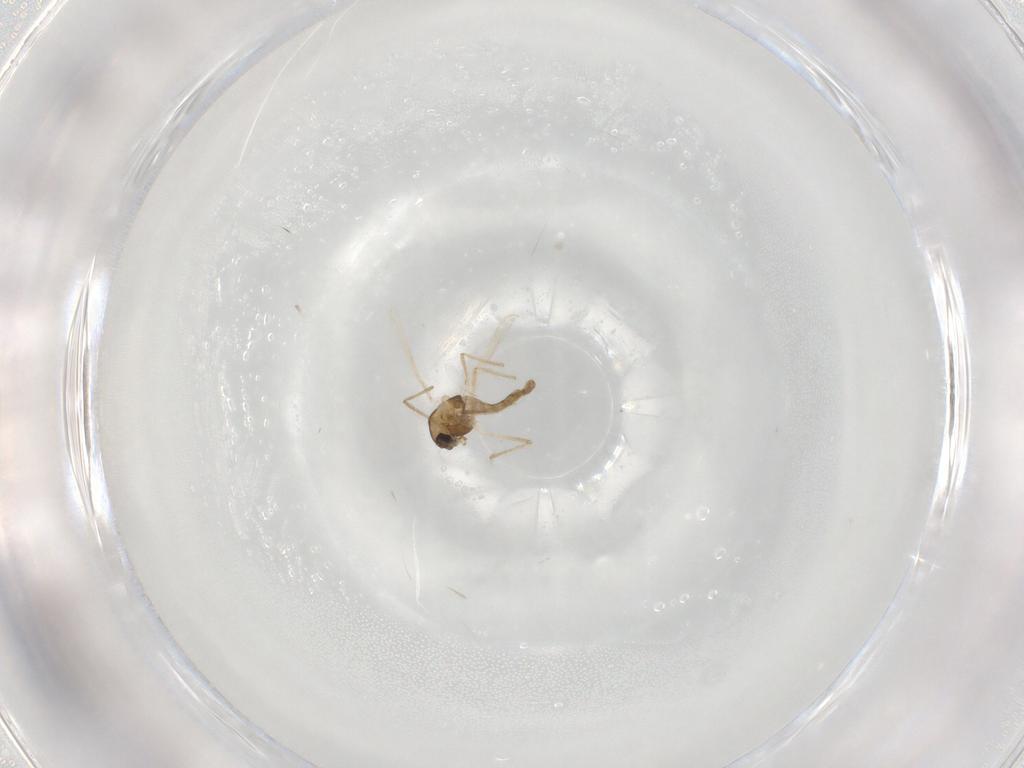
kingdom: Animalia
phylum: Arthropoda
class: Insecta
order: Diptera
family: Chironomidae
